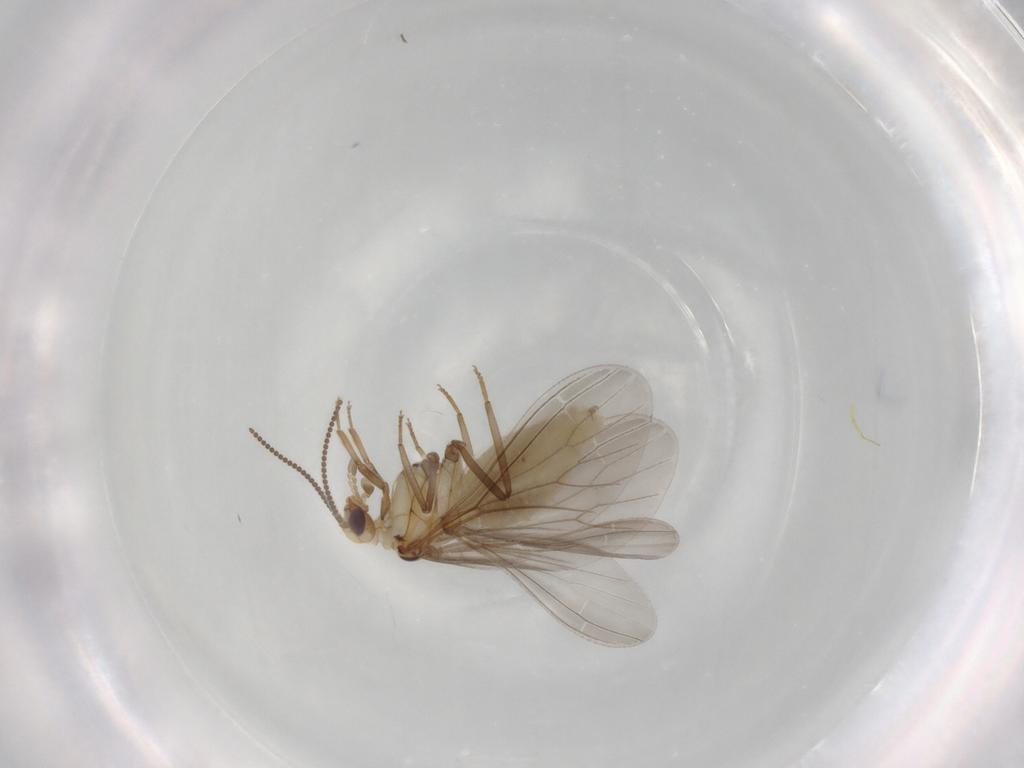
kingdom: Animalia
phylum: Arthropoda
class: Insecta
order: Neuroptera
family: Coniopterygidae
